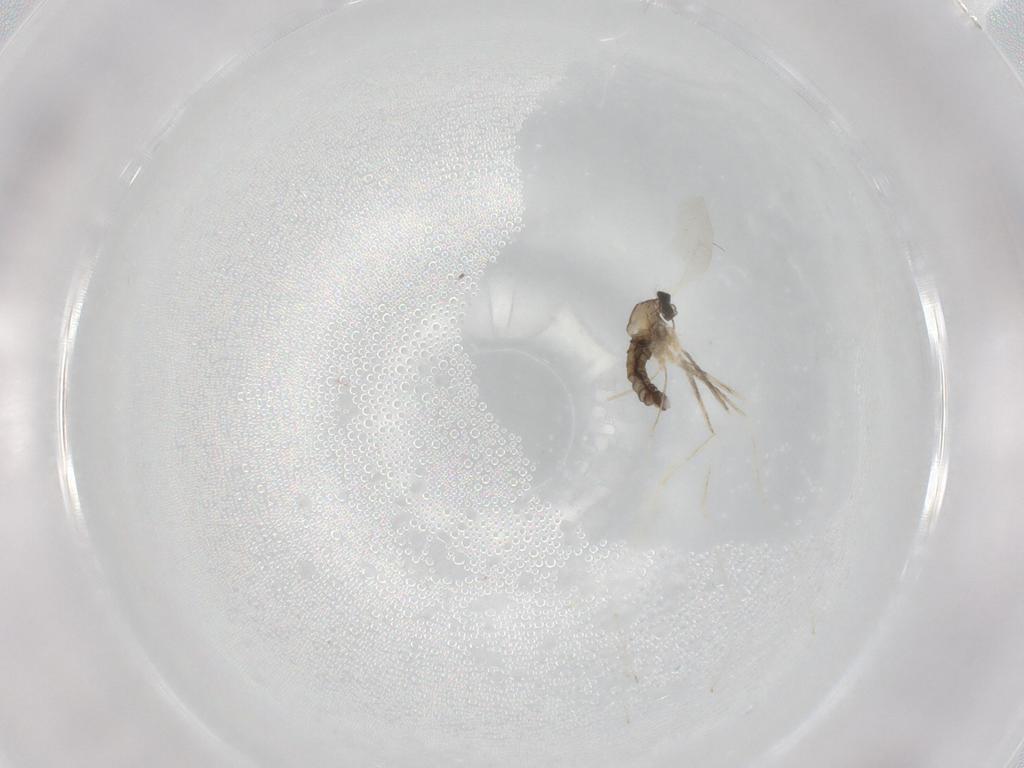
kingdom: Animalia
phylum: Arthropoda
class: Insecta
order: Diptera
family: Cecidomyiidae
